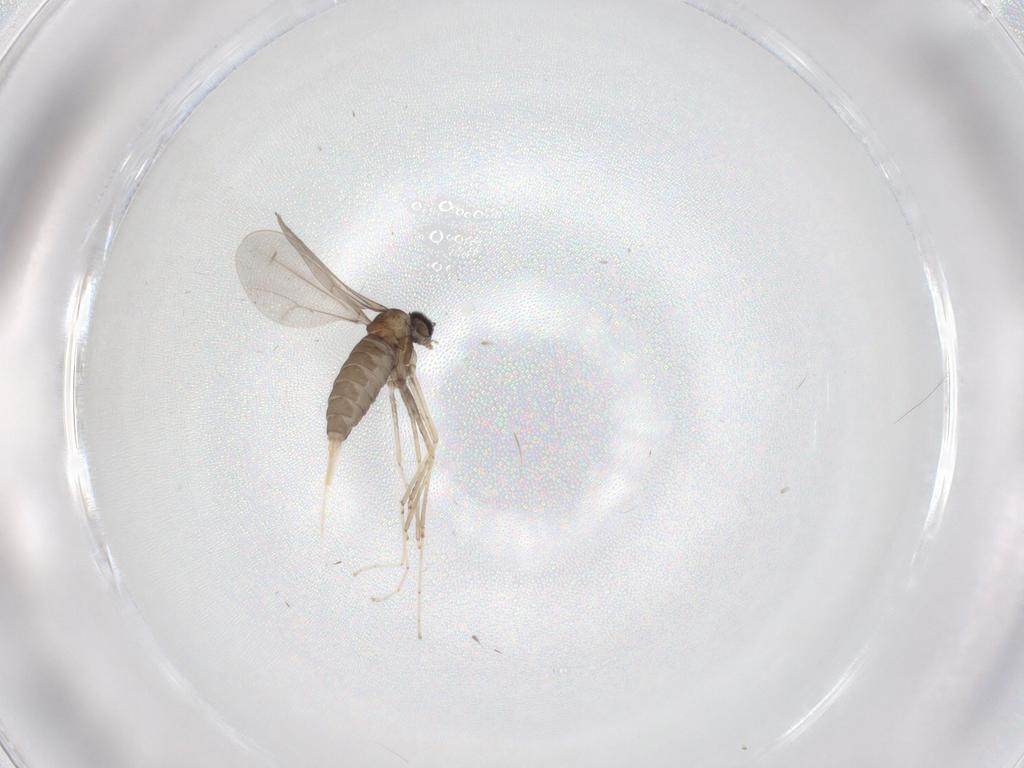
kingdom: Animalia
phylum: Arthropoda
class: Insecta
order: Diptera
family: Cecidomyiidae
